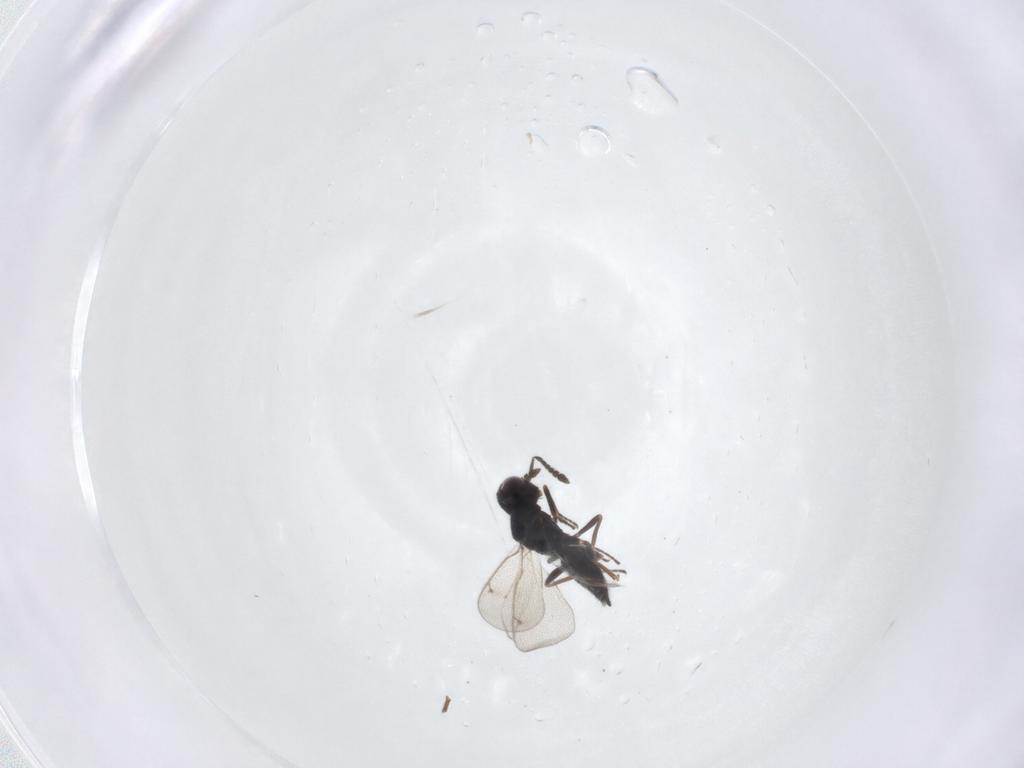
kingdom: Animalia
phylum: Arthropoda
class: Insecta
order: Hymenoptera
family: Eulophidae
